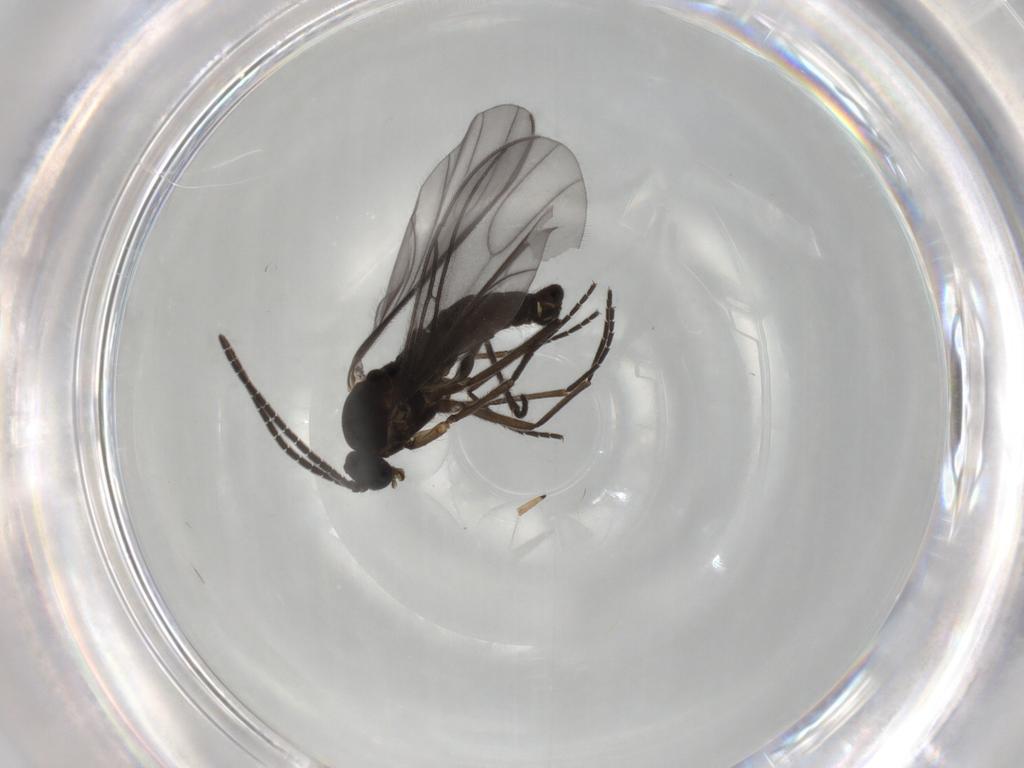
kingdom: Animalia
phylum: Arthropoda
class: Insecta
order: Diptera
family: Sciaridae
